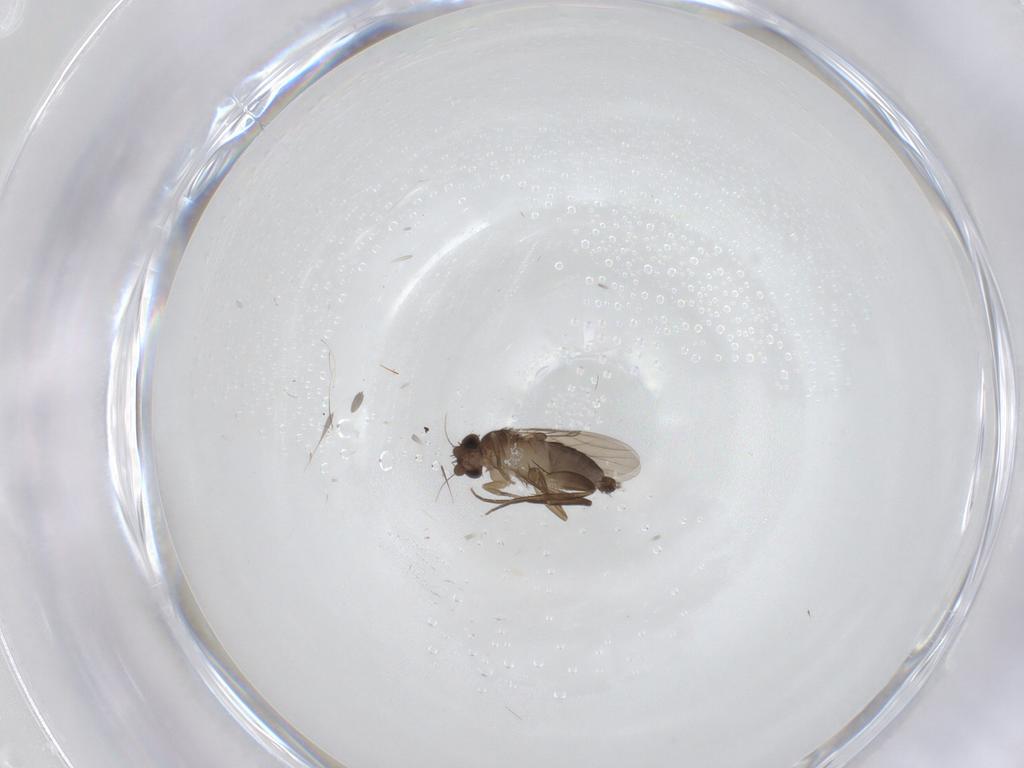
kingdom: Animalia
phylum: Arthropoda
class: Insecta
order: Diptera
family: Phoridae
